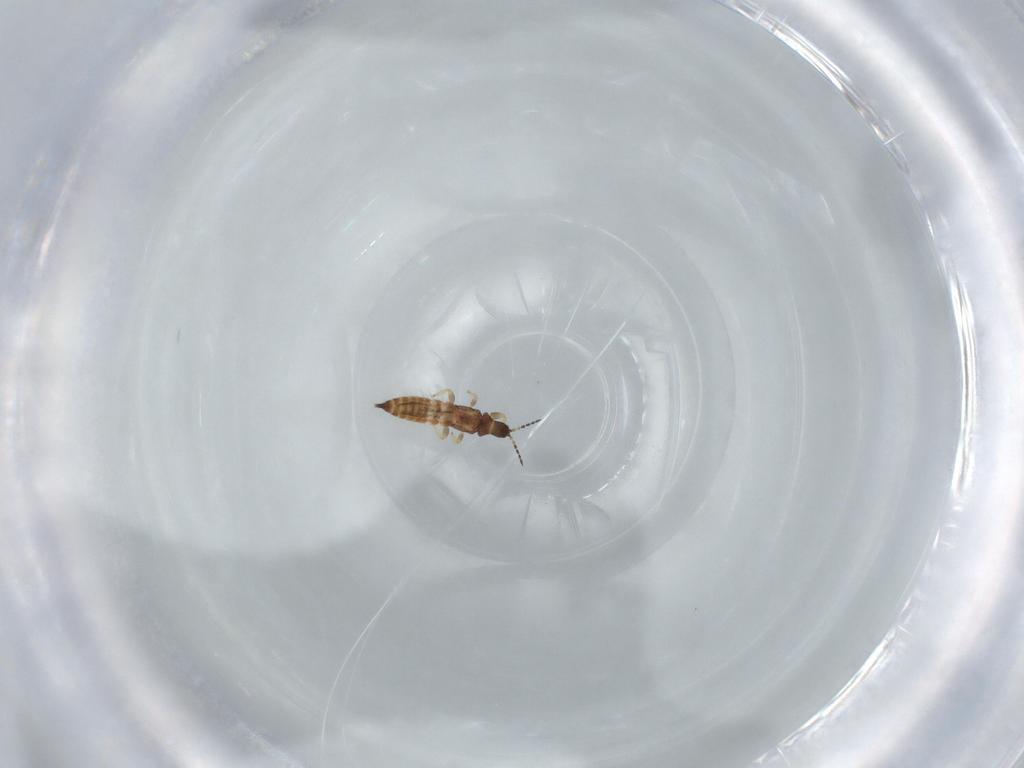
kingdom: Animalia
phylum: Arthropoda
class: Insecta
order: Thysanoptera
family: Phlaeothripidae
